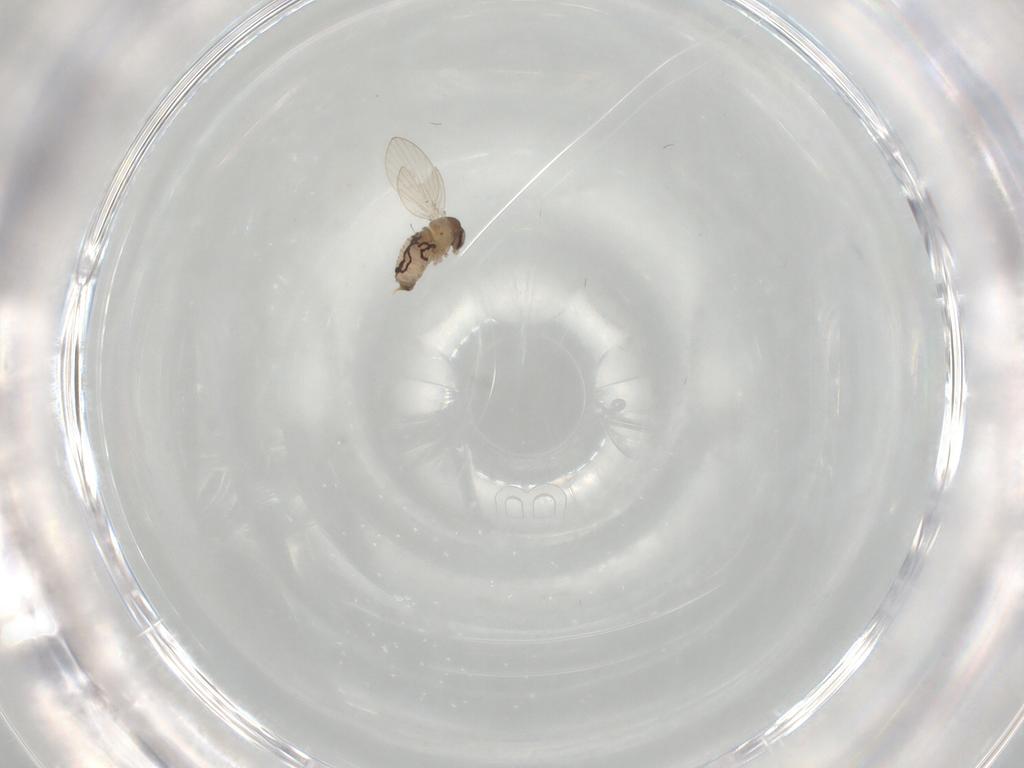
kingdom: Animalia
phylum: Arthropoda
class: Insecta
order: Diptera
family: Psychodidae
